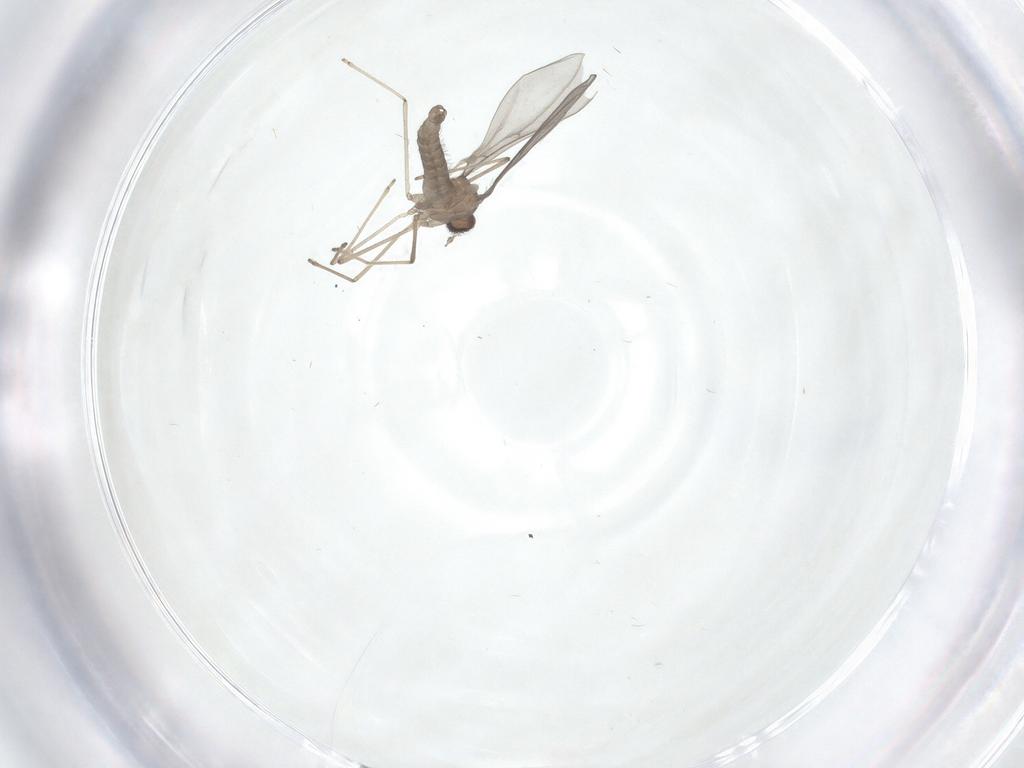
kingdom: Animalia
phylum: Arthropoda
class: Insecta
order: Diptera
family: Cecidomyiidae
